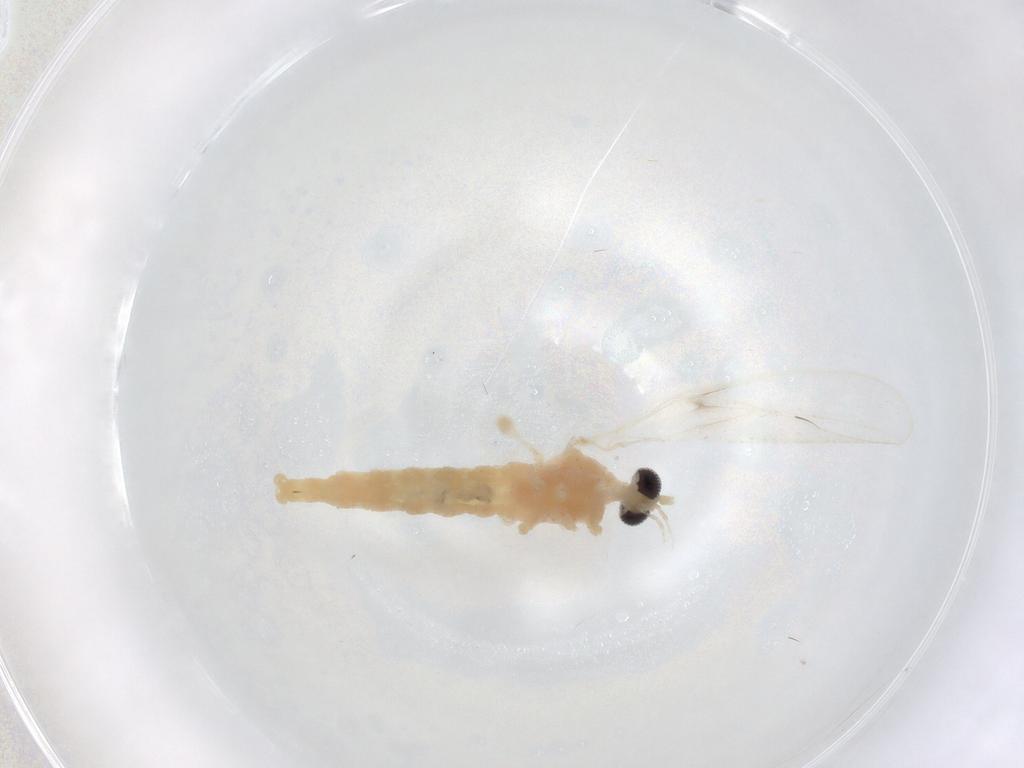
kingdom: Animalia
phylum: Arthropoda
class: Insecta
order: Diptera
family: Cecidomyiidae
